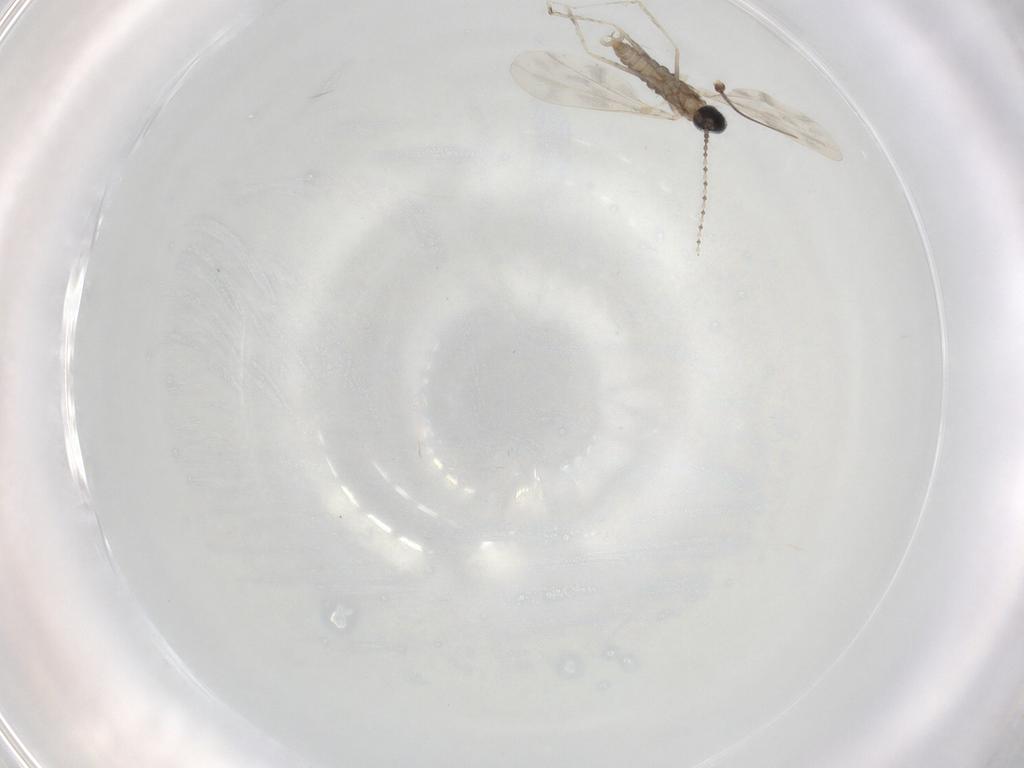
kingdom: Animalia
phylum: Arthropoda
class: Insecta
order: Diptera
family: Cecidomyiidae
